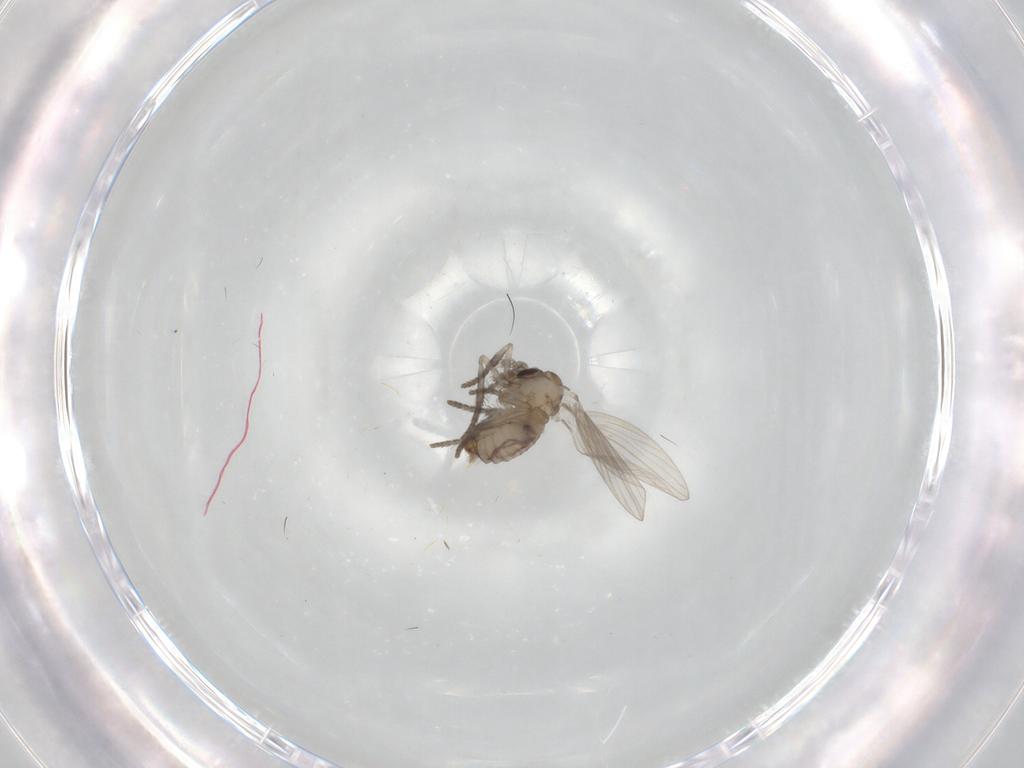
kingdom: Animalia
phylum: Arthropoda
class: Insecta
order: Diptera
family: Psychodidae
